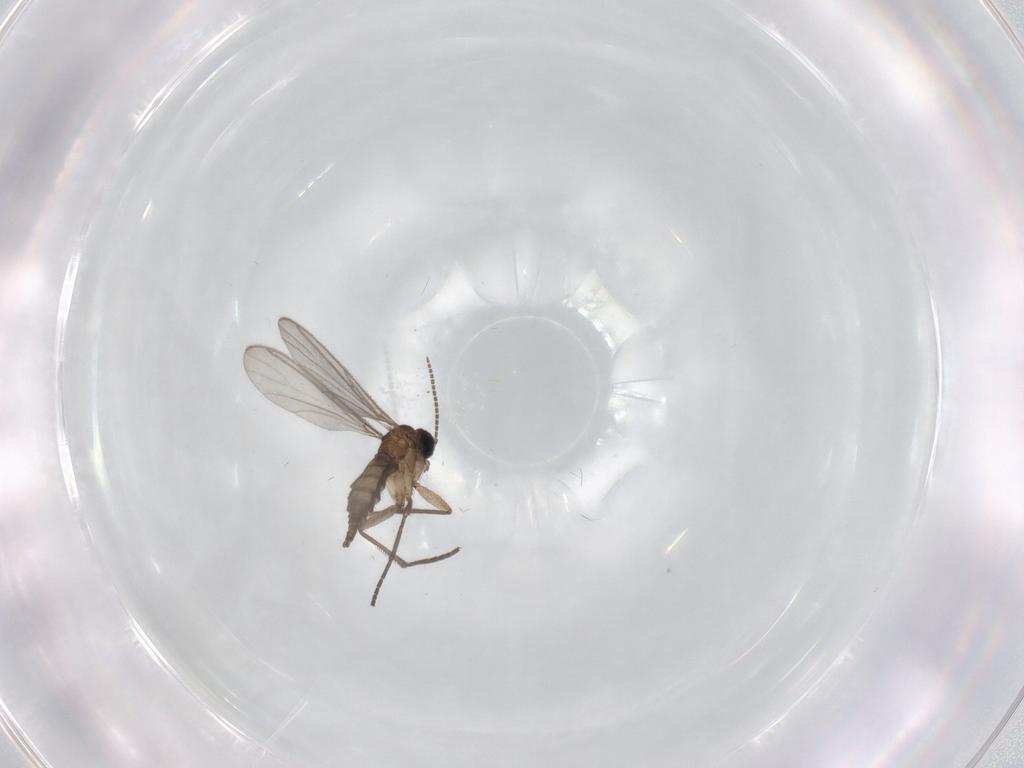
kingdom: Animalia
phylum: Arthropoda
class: Insecta
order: Diptera
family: Sciaridae
